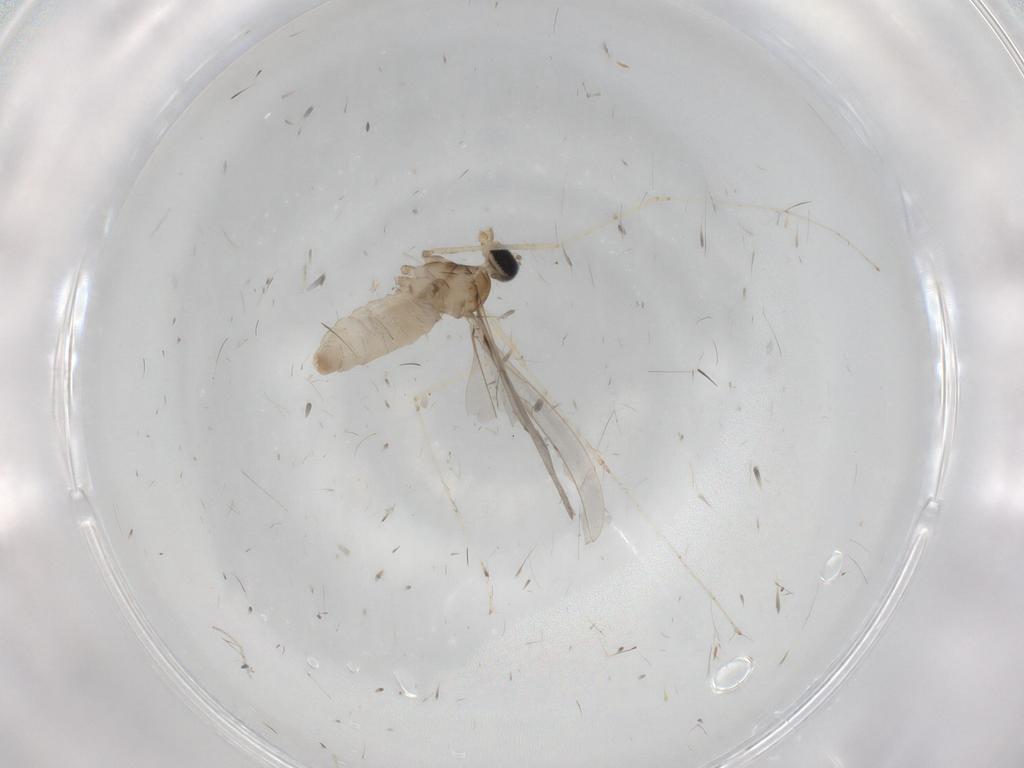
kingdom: Animalia
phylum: Arthropoda
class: Insecta
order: Diptera
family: Cecidomyiidae
